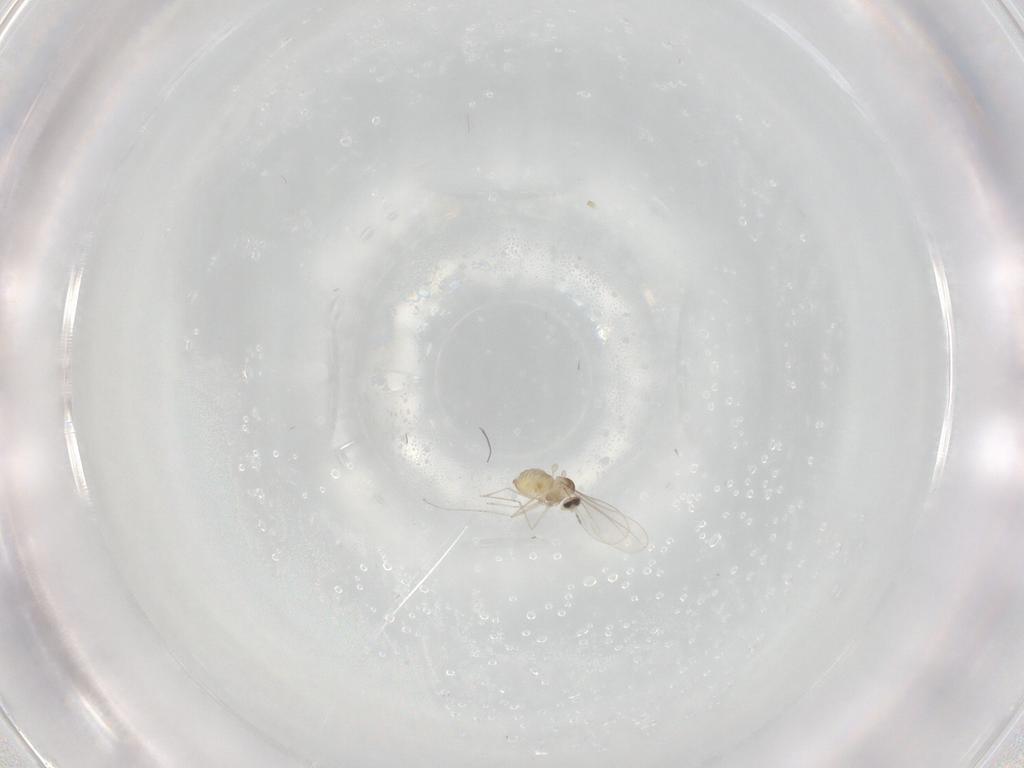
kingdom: Animalia
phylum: Arthropoda
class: Insecta
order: Diptera
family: Cecidomyiidae
